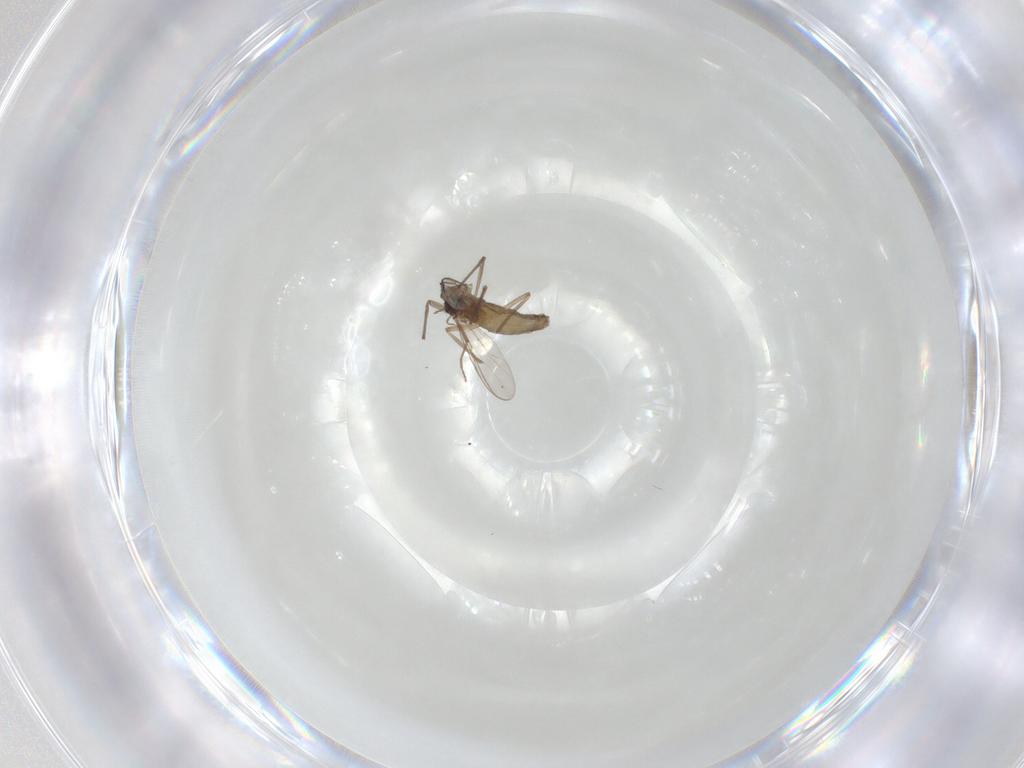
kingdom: Animalia
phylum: Arthropoda
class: Insecta
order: Diptera
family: Chironomidae
